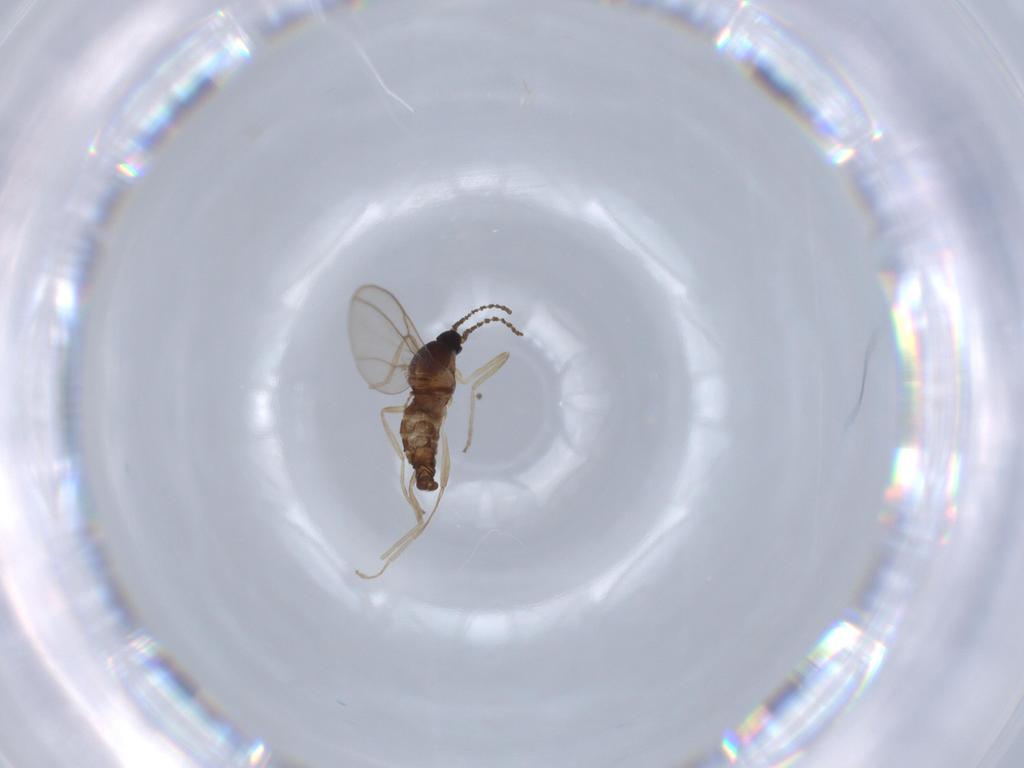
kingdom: Animalia
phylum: Arthropoda
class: Insecta
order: Diptera
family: Cecidomyiidae
